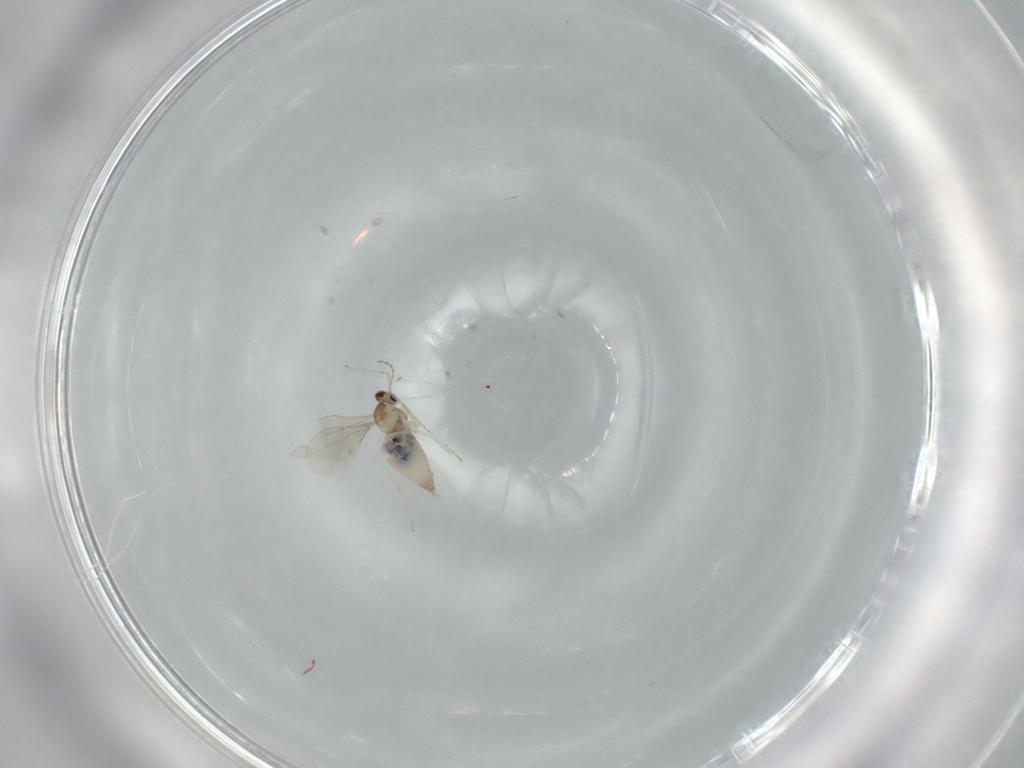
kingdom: Animalia
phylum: Arthropoda
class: Insecta
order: Diptera
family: Cecidomyiidae
